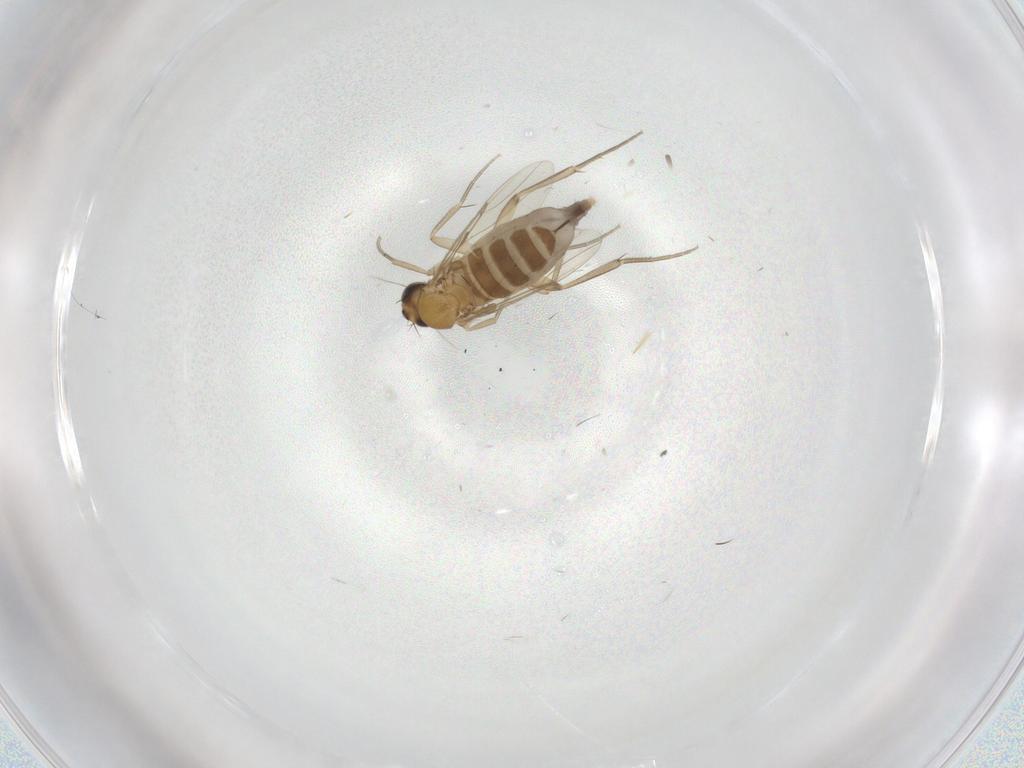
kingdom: Animalia
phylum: Arthropoda
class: Insecta
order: Diptera
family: Phoridae
